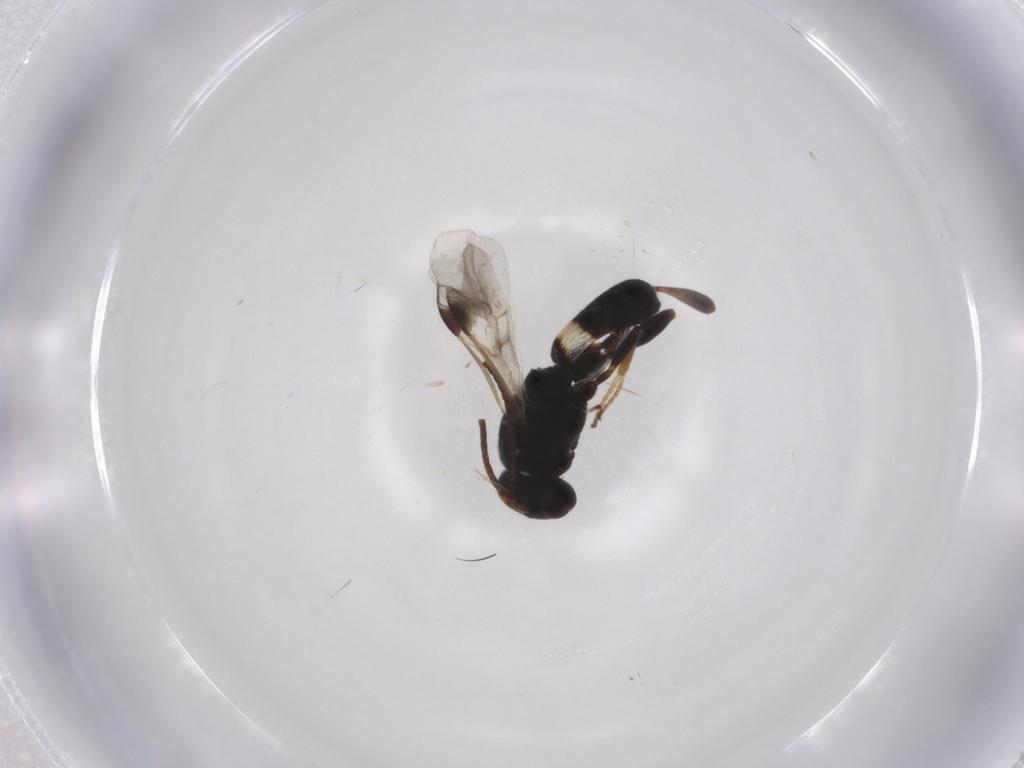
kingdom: Animalia
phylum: Arthropoda
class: Insecta
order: Hymenoptera
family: Braconidae
